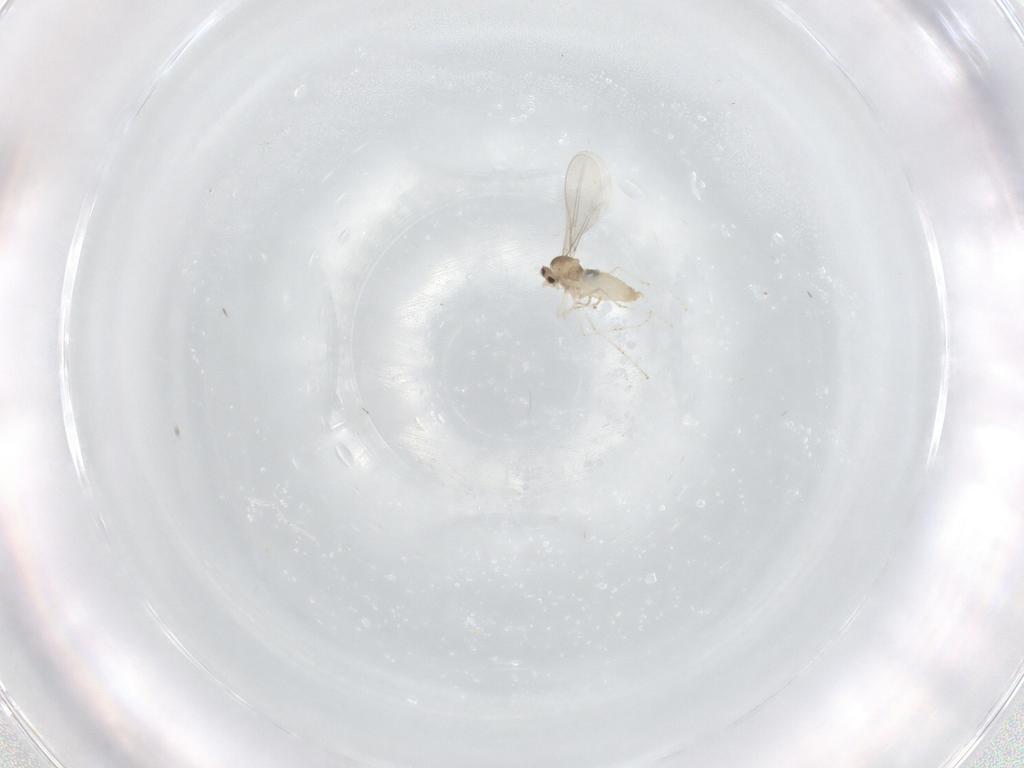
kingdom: Animalia
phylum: Arthropoda
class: Insecta
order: Diptera
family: Cecidomyiidae
